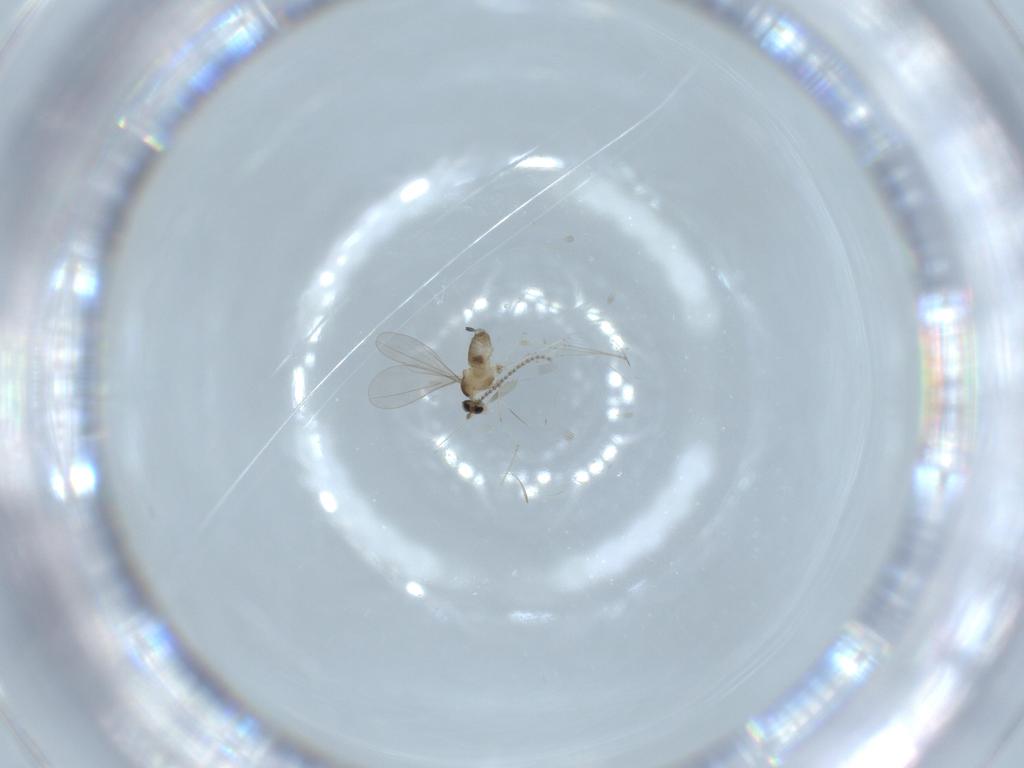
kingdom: Animalia
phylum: Arthropoda
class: Insecta
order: Diptera
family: Cecidomyiidae
